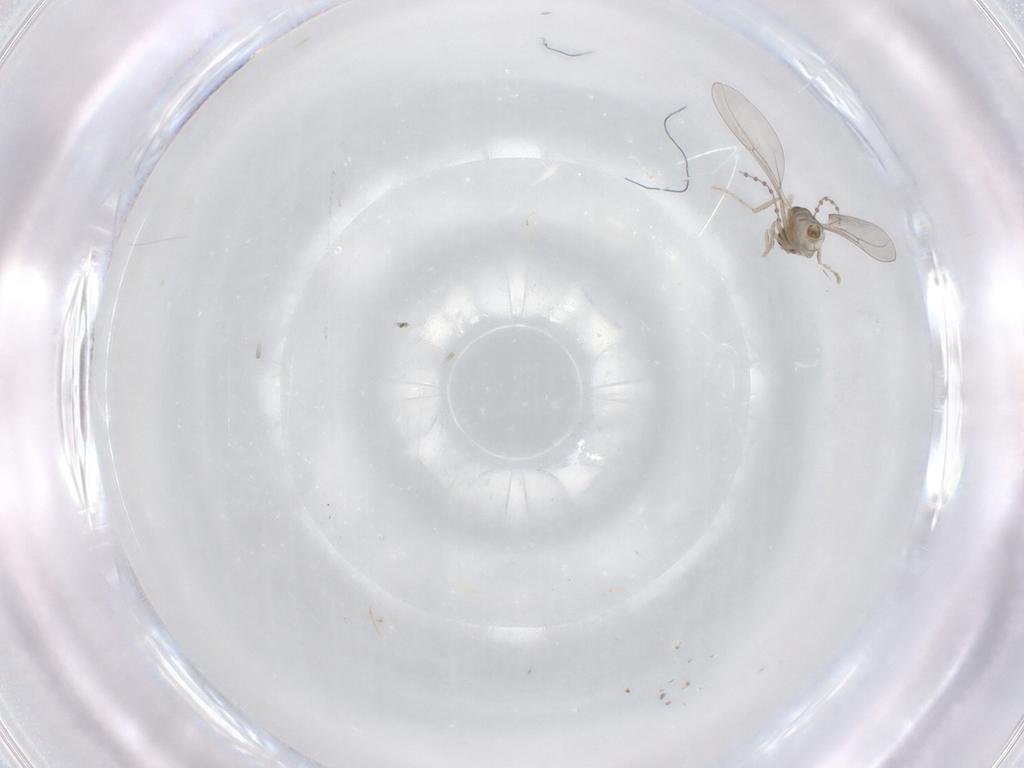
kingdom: Animalia
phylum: Arthropoda
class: Insecta
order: Diptera
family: Cecidomyiidae
